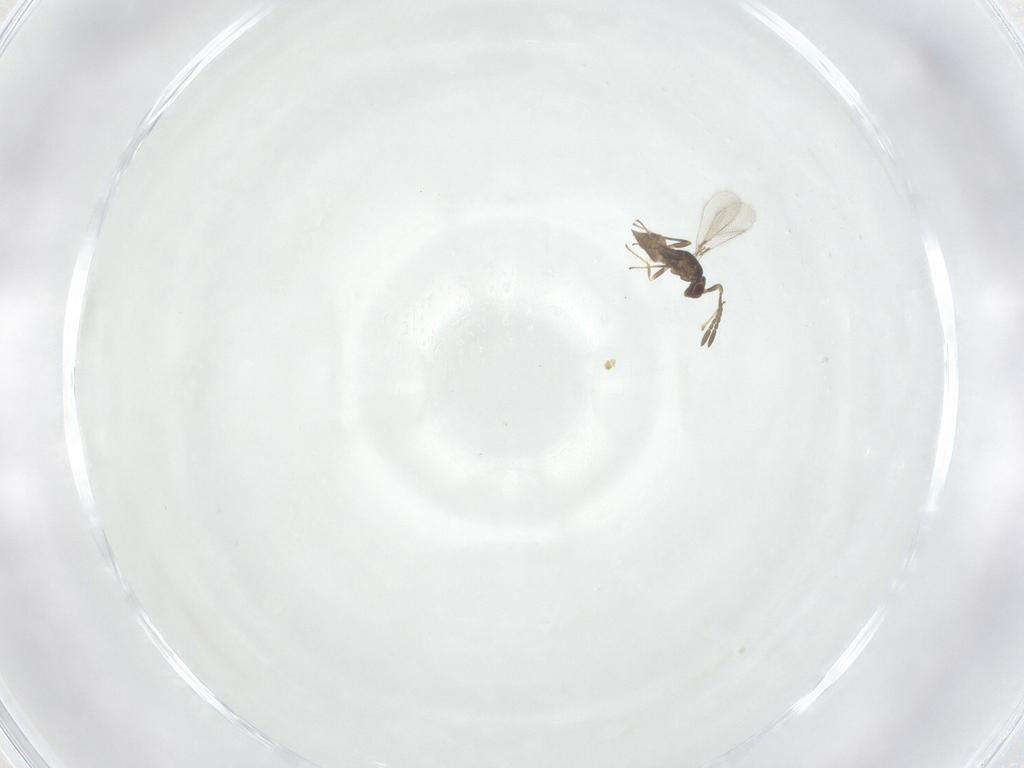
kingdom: Animalia
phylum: Arthropoda
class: Insecta
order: Hymenoptera
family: Mymaridae
